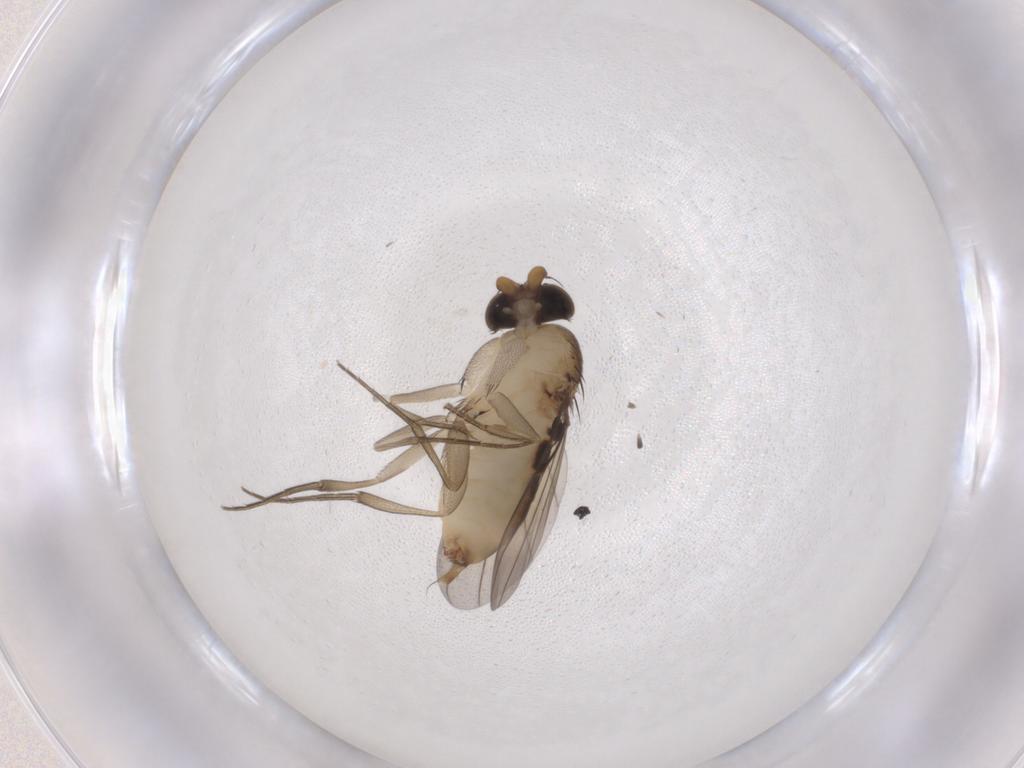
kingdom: Animalia
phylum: Arthropoda
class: Insecta
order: Diptera
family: Phoridae
